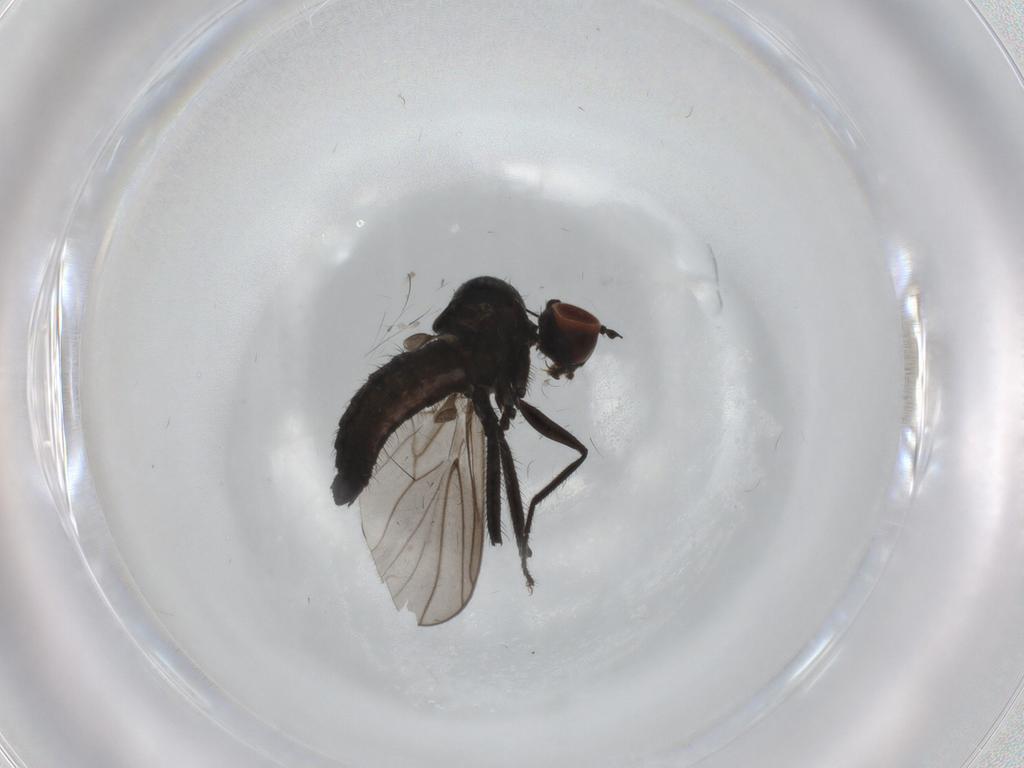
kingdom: Animalia
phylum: Arthropoda
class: Insecta
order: Diptera
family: Ceratopogonidae
